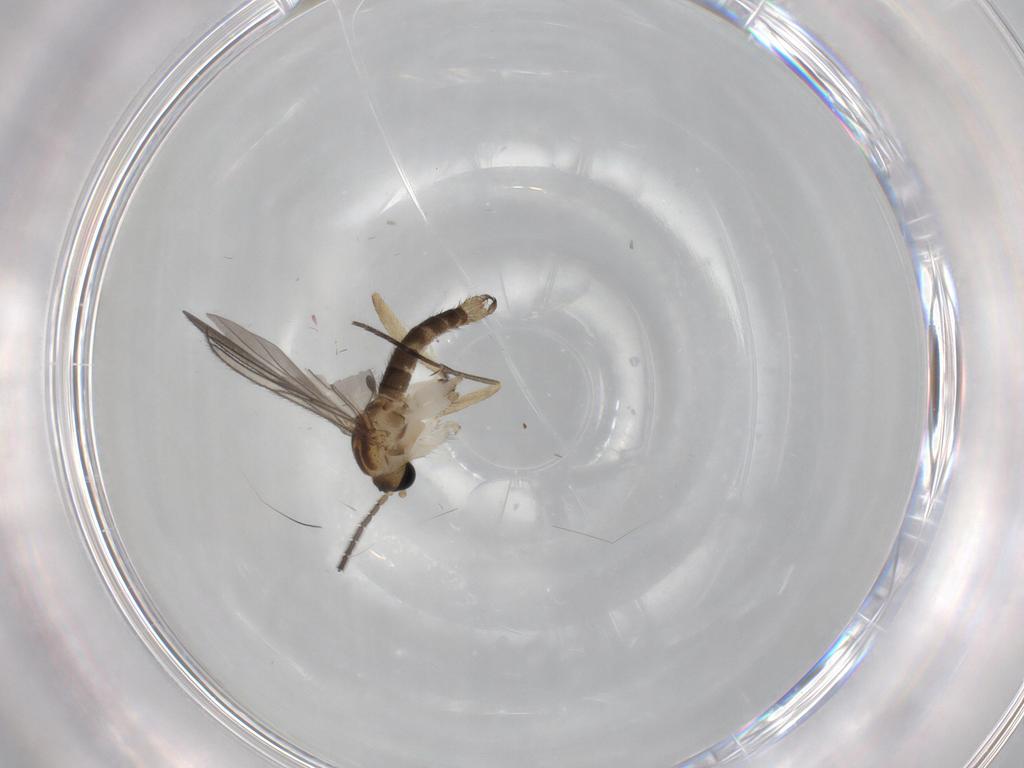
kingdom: Animalia
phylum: Arthropoda
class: Insecta
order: Diptera
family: Sciaridae
